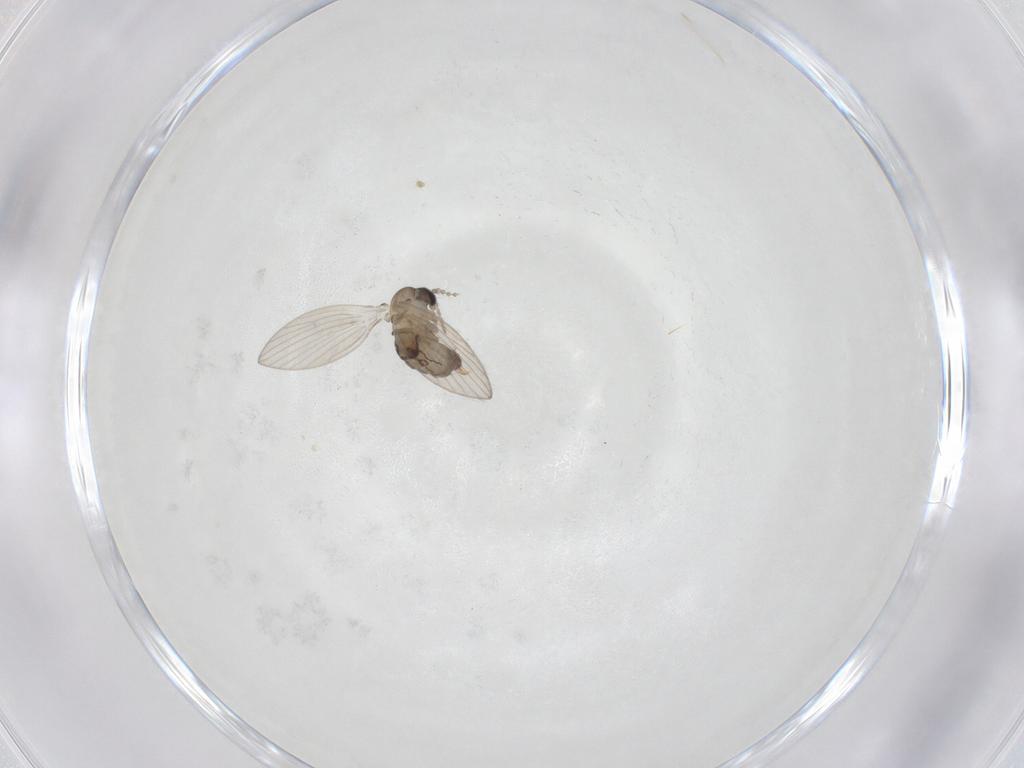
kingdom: Animalia
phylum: Arthropoda
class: Insecta
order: Diptera
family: Psychodidae
